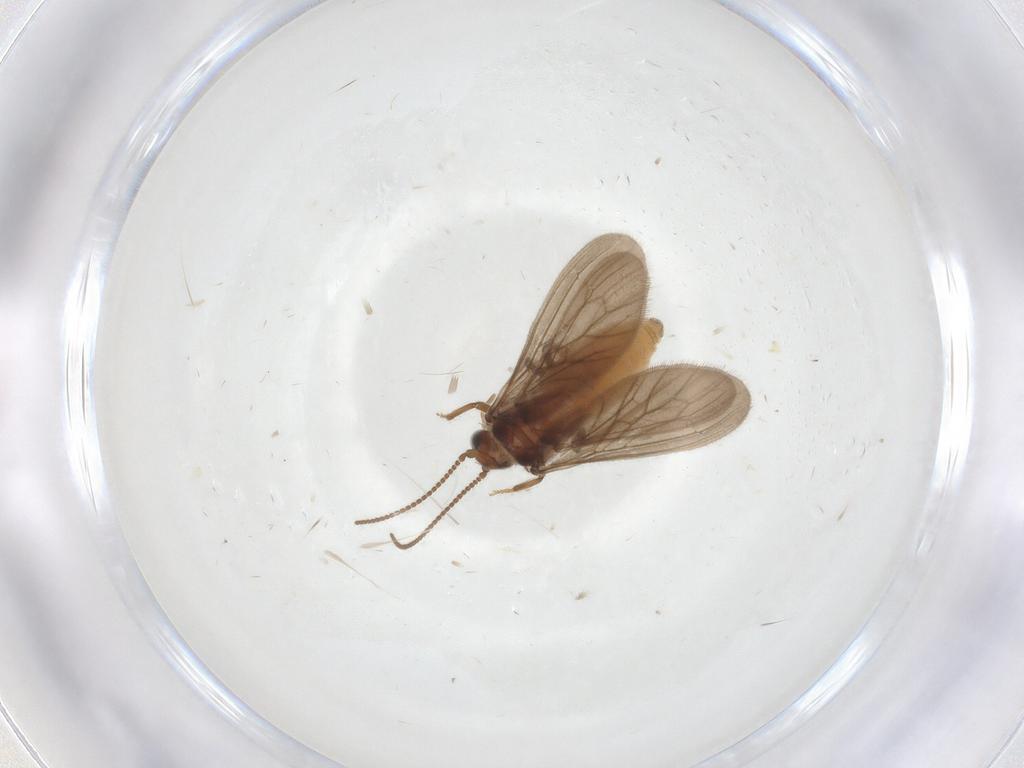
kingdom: Animalia
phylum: Arthropoda
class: Insecta
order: Neuroptera
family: Coniopterygidae
